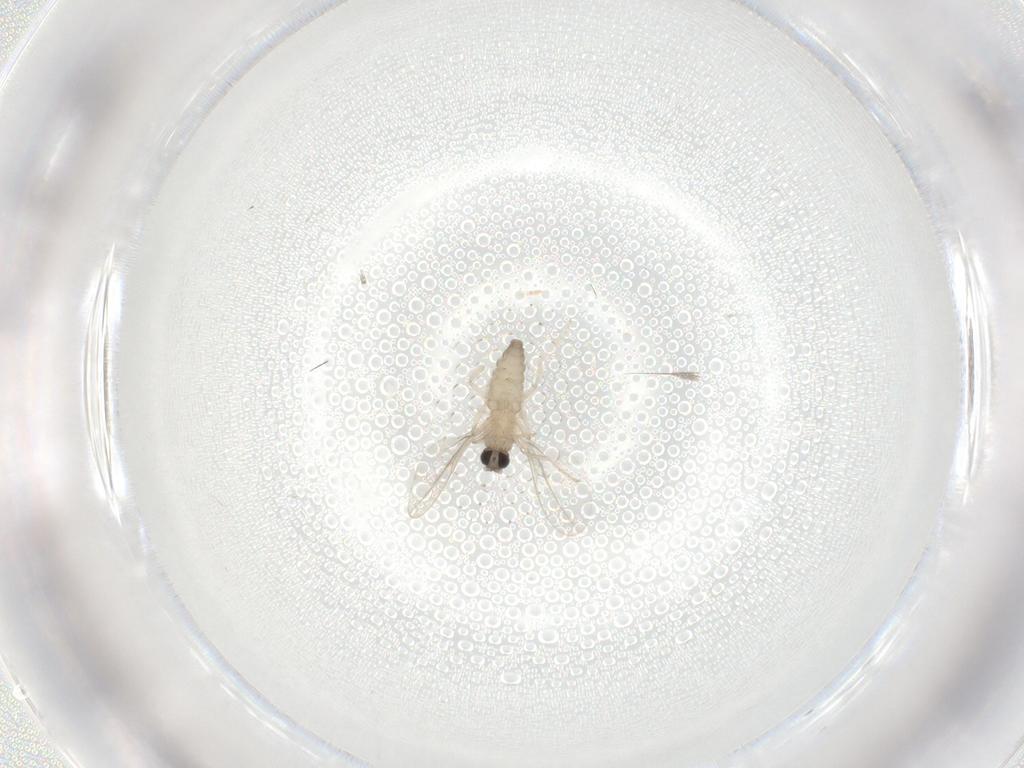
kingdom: Animalia
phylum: Arthropoda
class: Insecta
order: Diptera
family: Cecidomyiidae
